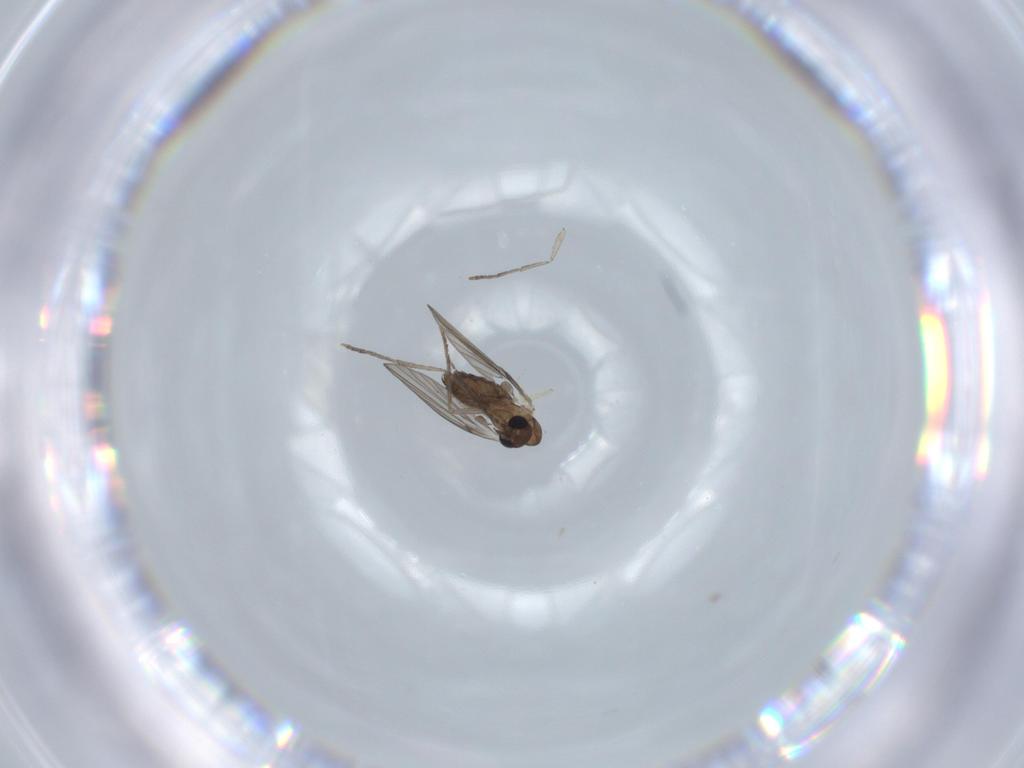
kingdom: Animalia
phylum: Arthropoda
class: Insecta
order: Diptera
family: Psychodidae
